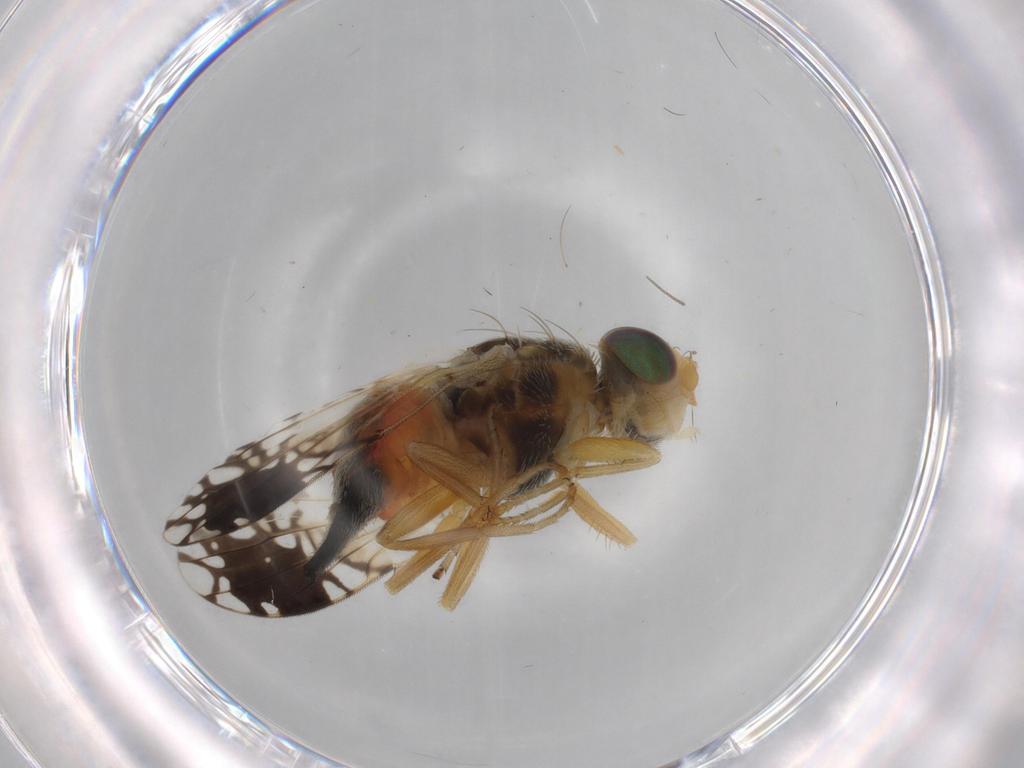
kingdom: Animalia
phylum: Arthropoda
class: Insecta
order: Diptera
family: Tephritidae
